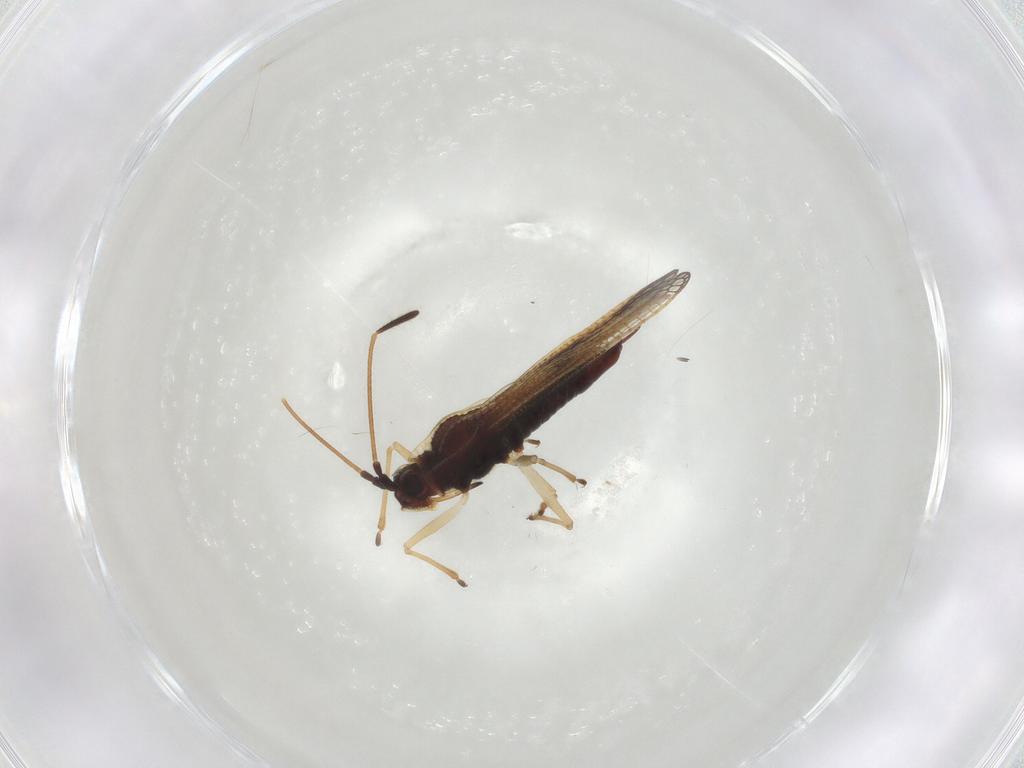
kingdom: Animalia
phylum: Arthropoda
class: Insecta
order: Hemiptera
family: Tingidae
